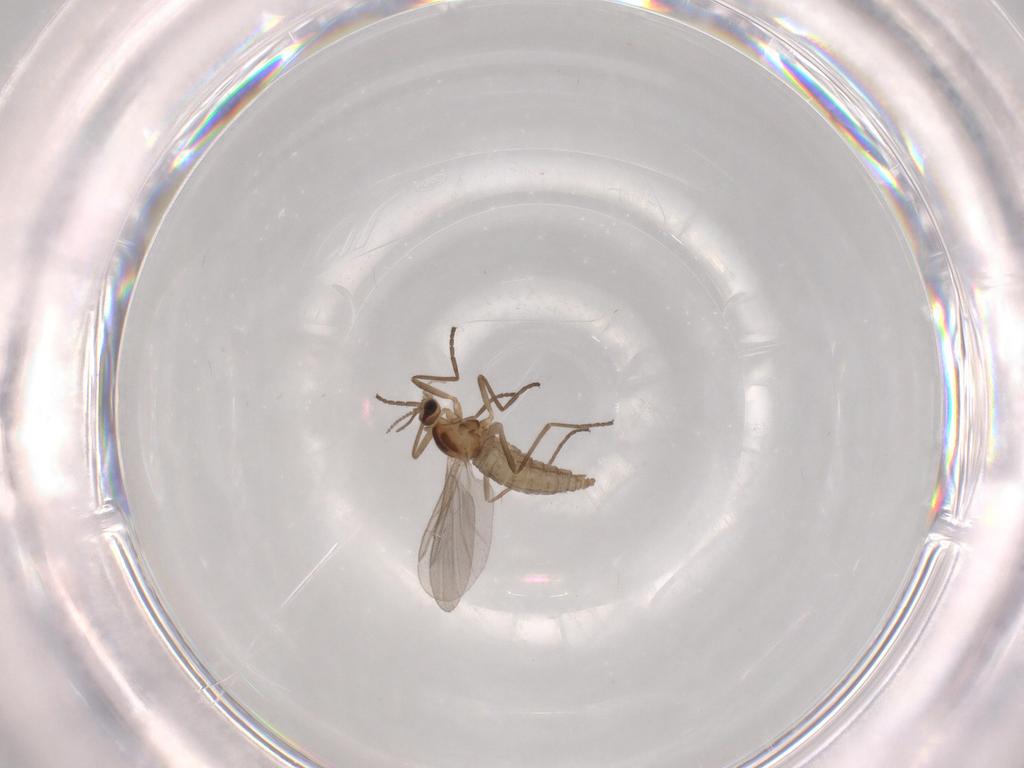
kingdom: Animalia
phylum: Arthropoda
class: Insecta
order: Diptera
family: Cecidomyiidae
